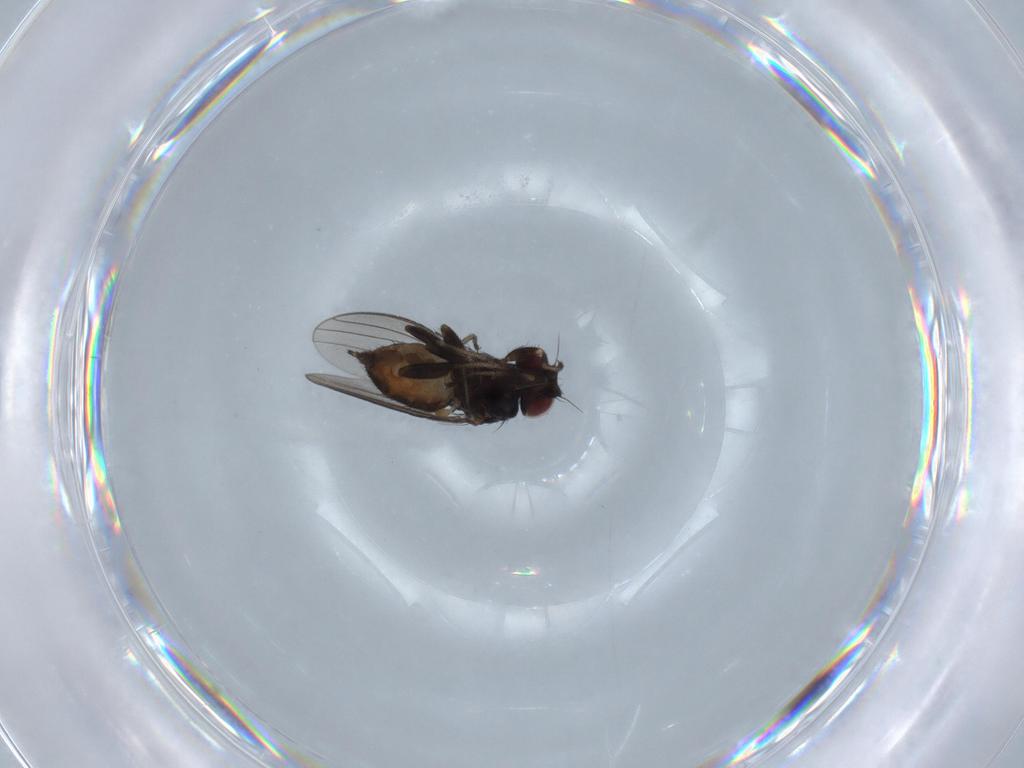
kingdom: Animalia
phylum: Arthropoda
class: Insecta
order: Diptera
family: Milichiidae
